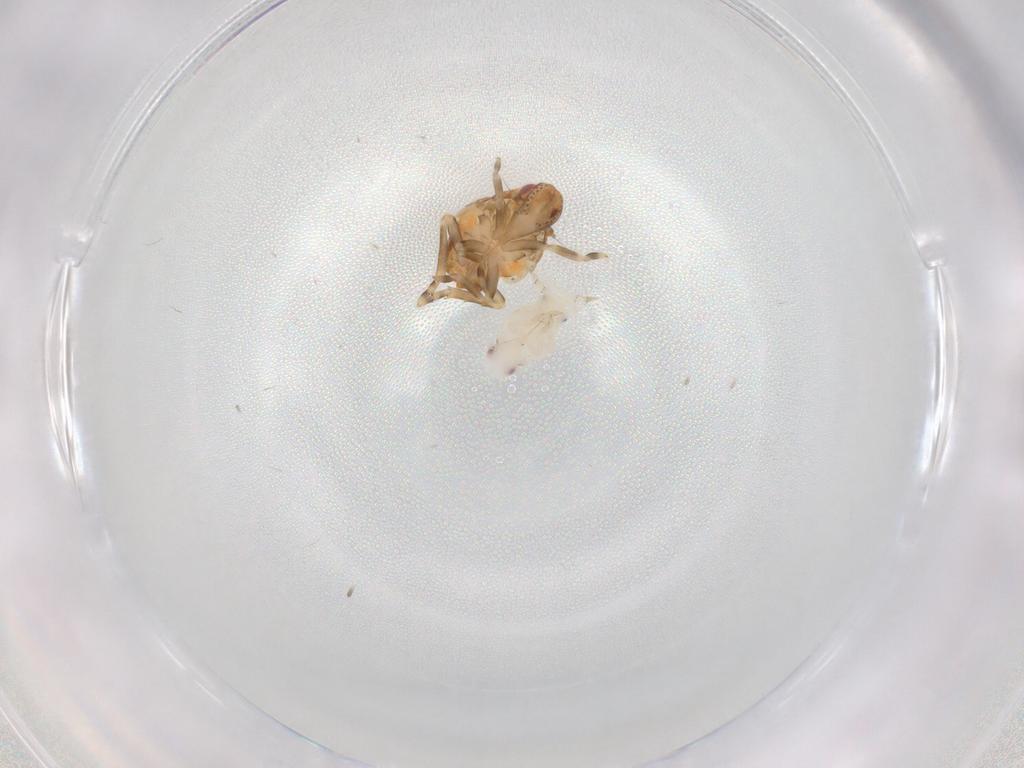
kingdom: Animalia
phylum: Arthropoda
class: Insecta
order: Hemiptera
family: Flatidae
